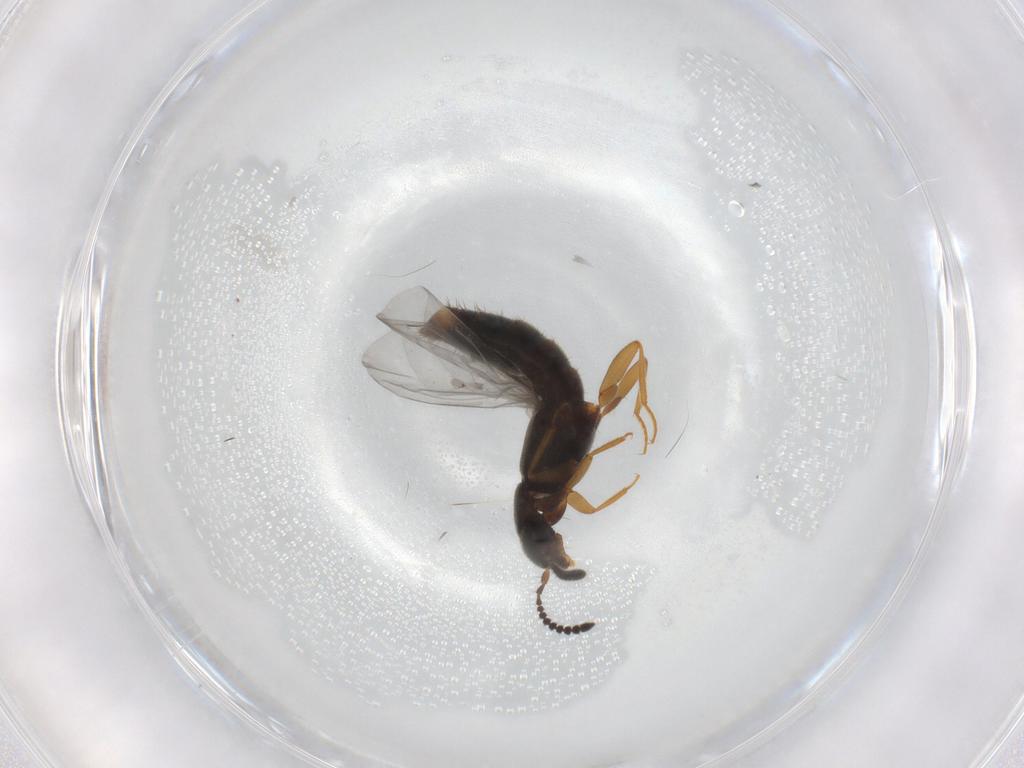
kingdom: Animalia
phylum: Arthropoda
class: Insecta
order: Coleoptera
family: Staphylinidae
